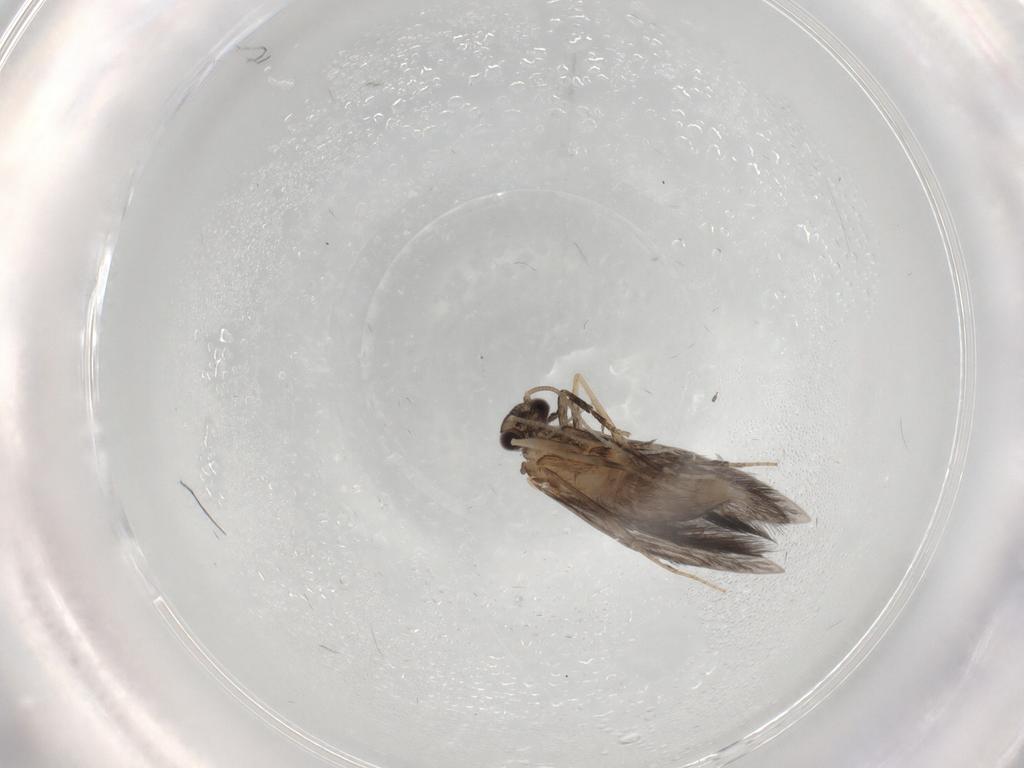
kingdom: Animalia
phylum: Arthropoda
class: Insecta
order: Trichoptera
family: Hydroptilidae
